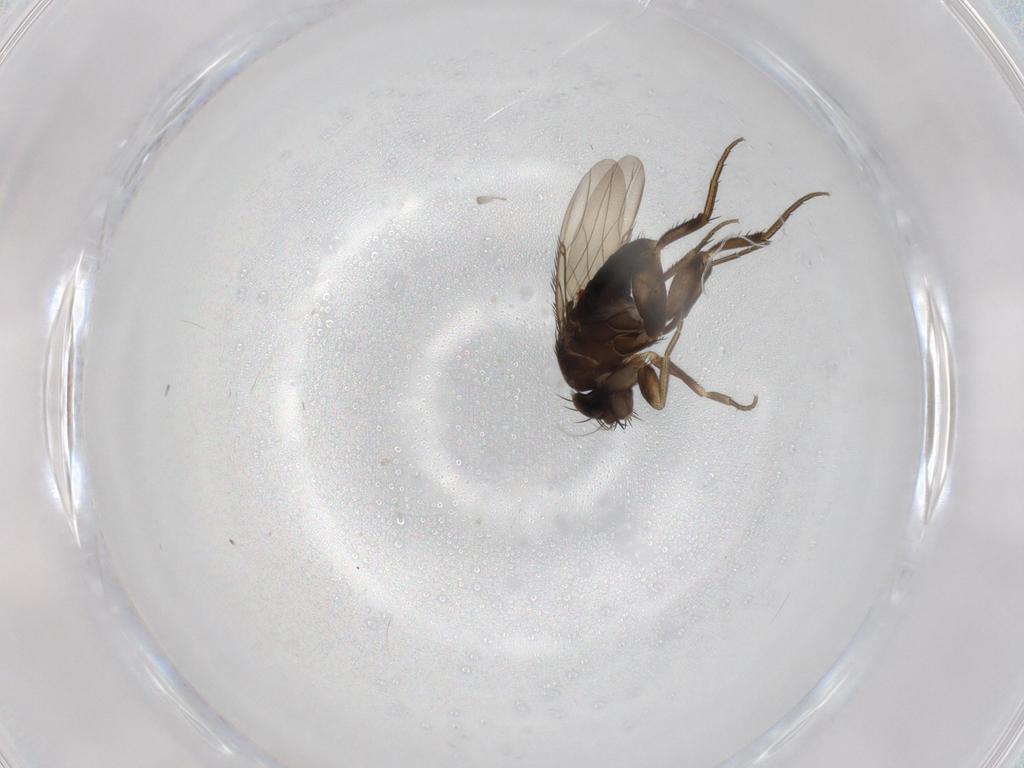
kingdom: Animalia
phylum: Arthropoda
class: Insecta
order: Diptera
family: Phoridae
